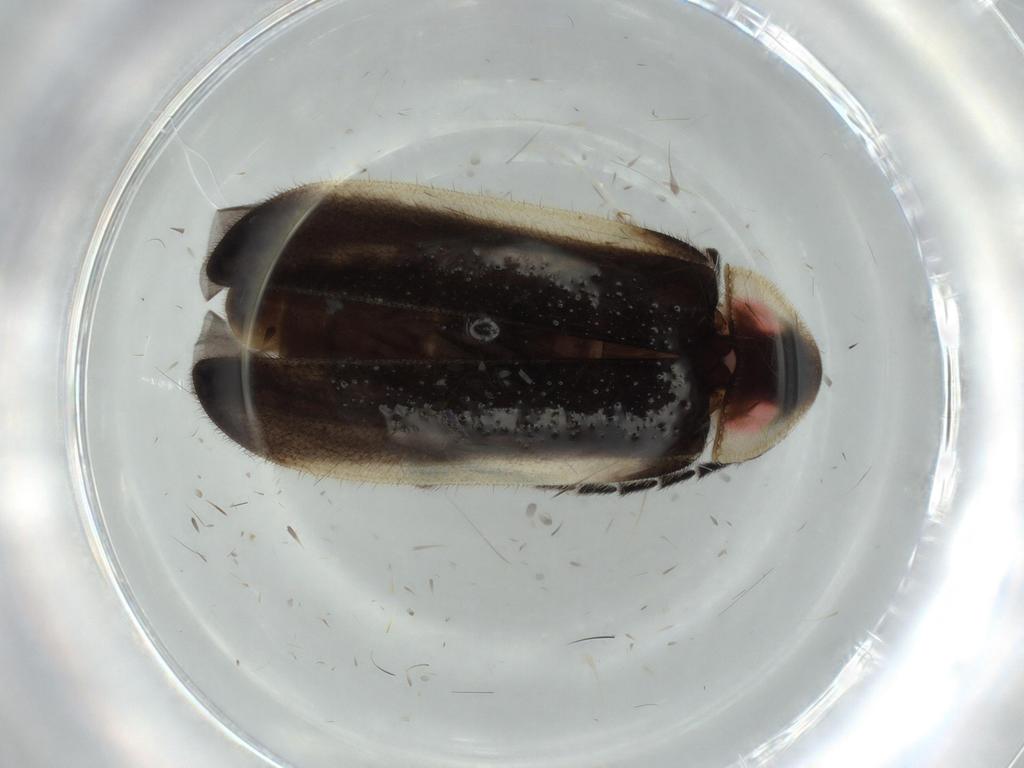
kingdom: Animalia
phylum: Arthropoda
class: Insecta
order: Coleoptera
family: Lampyridae
